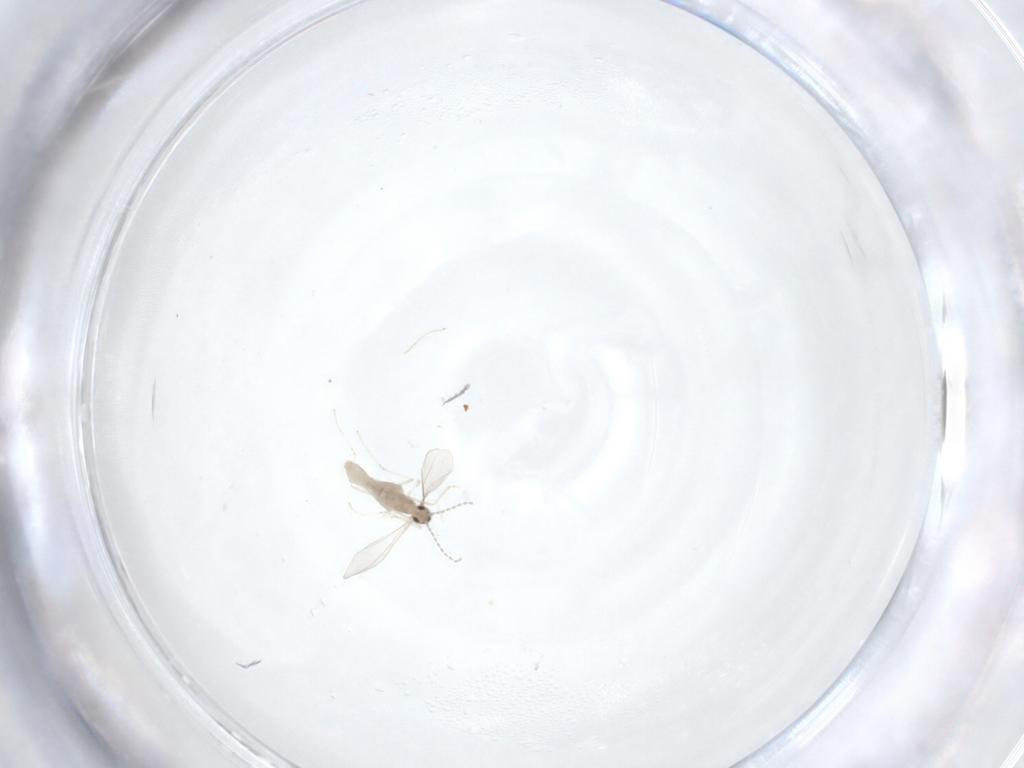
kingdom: Animalia
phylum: Arthropoda
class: Insecta
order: Diptera
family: Cecidomyiidae
